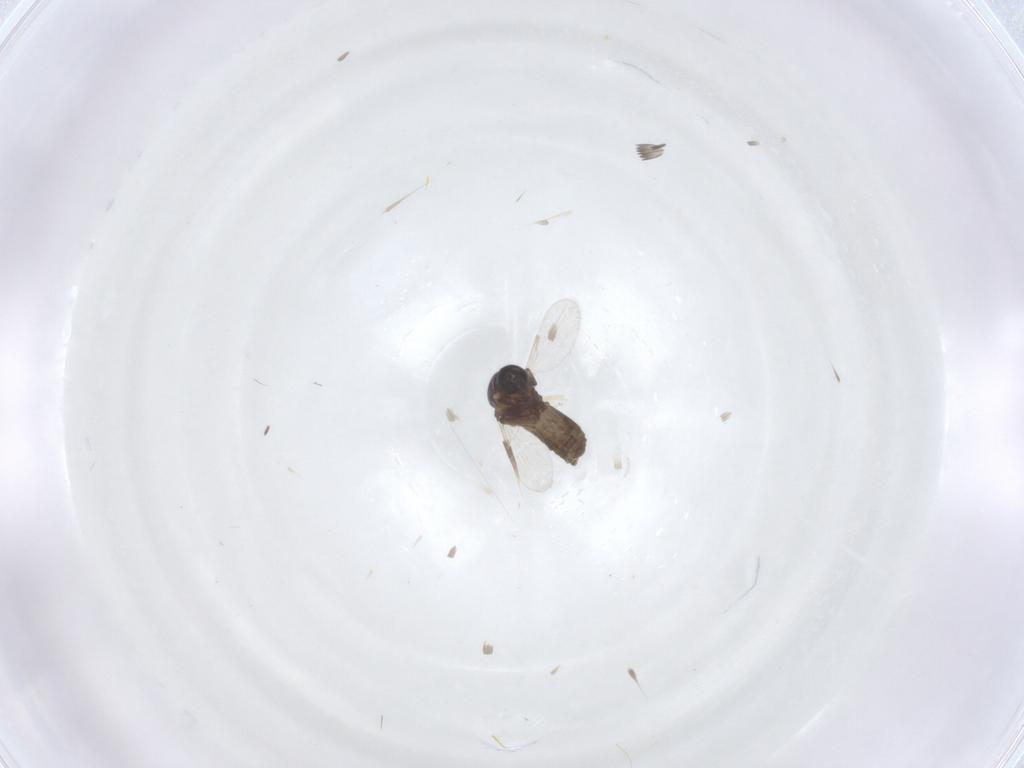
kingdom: Animalia
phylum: Arthropoda
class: Insecta
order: Diptera
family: Ceratopogonidae
